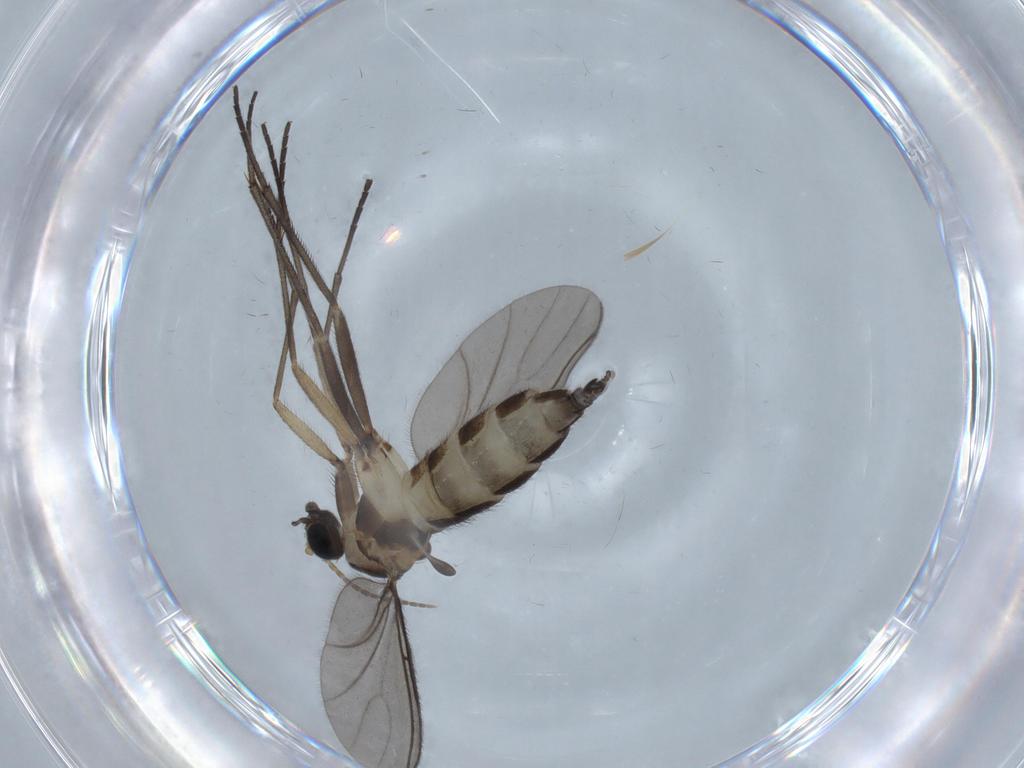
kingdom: Animalia
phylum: Arthropoda
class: Insecta
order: Diptera
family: Sciaridae
